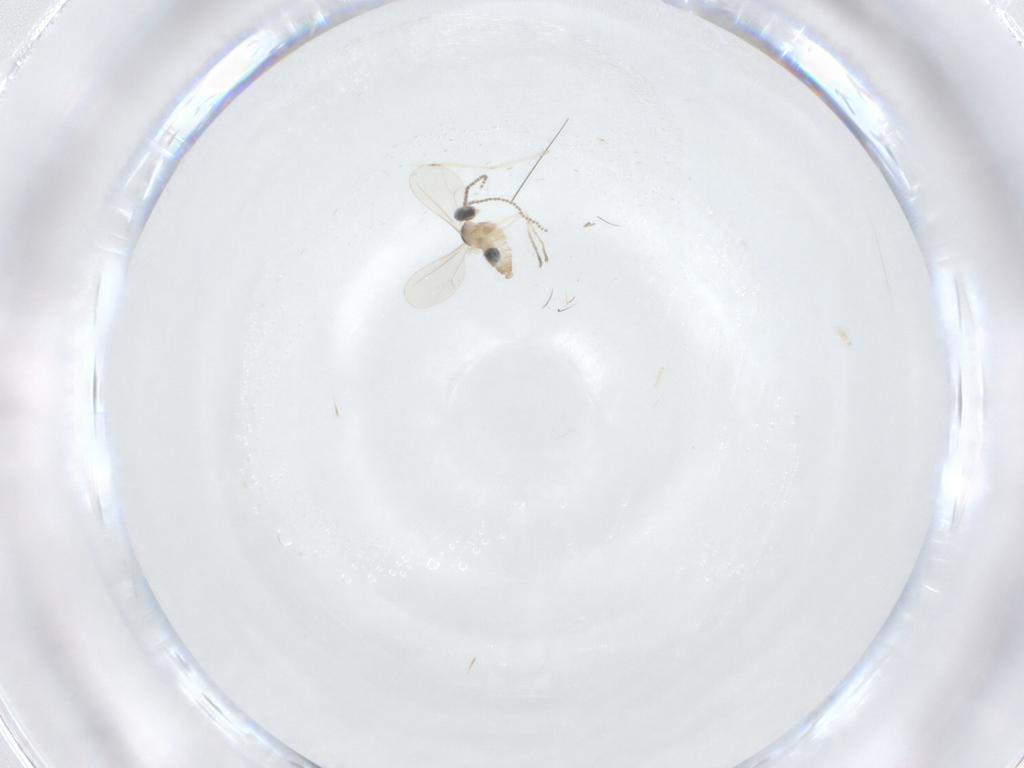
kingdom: Animalia
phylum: Arthropoda
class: Insecta
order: Diptera
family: Cecidomyiidae
